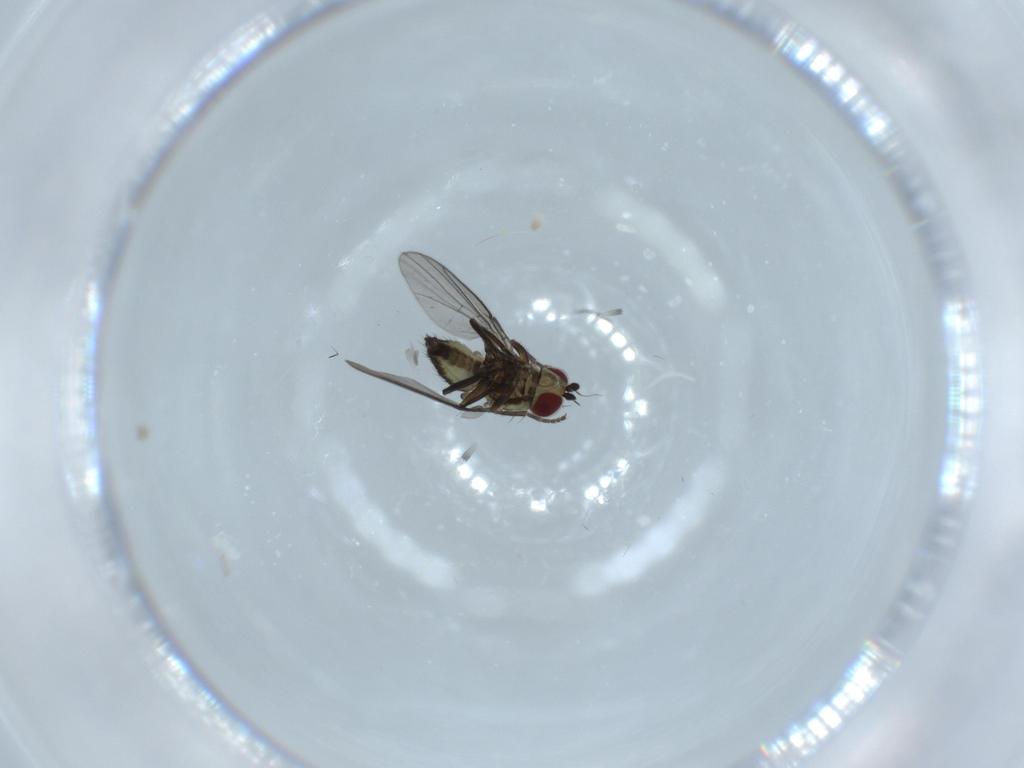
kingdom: Animalia
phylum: Arthropoda
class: Insecta
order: Diptera
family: Agromyzidae
